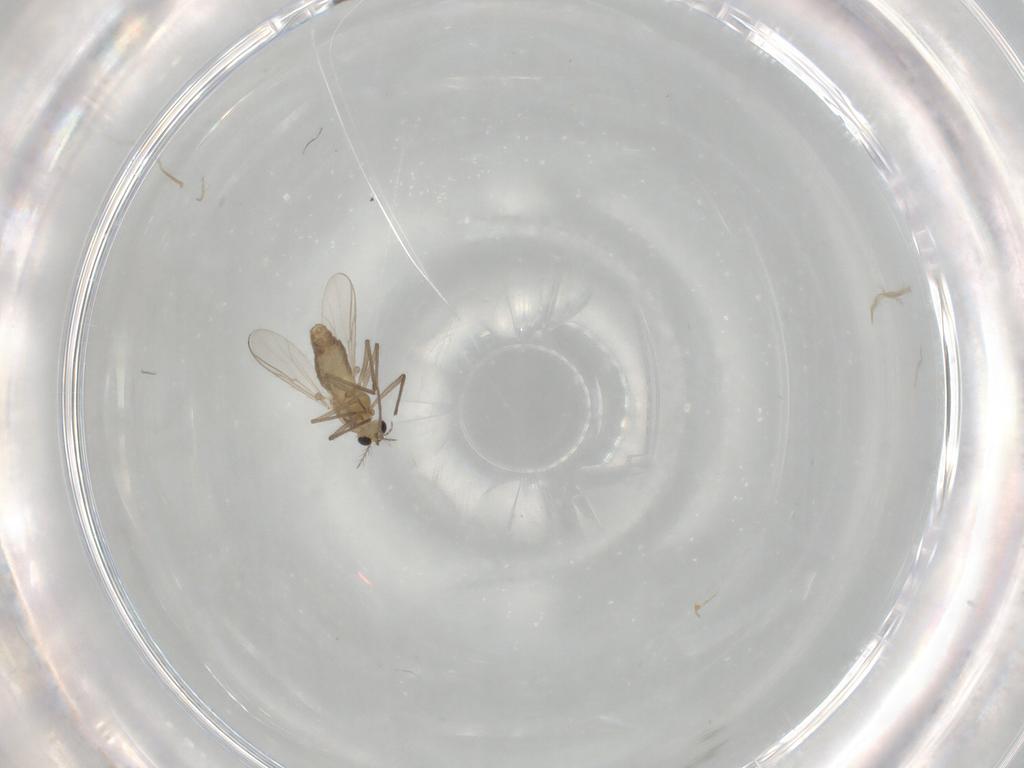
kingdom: Animalia
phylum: Arthropoda
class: Insecta
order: Diptera
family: Chironomidae
